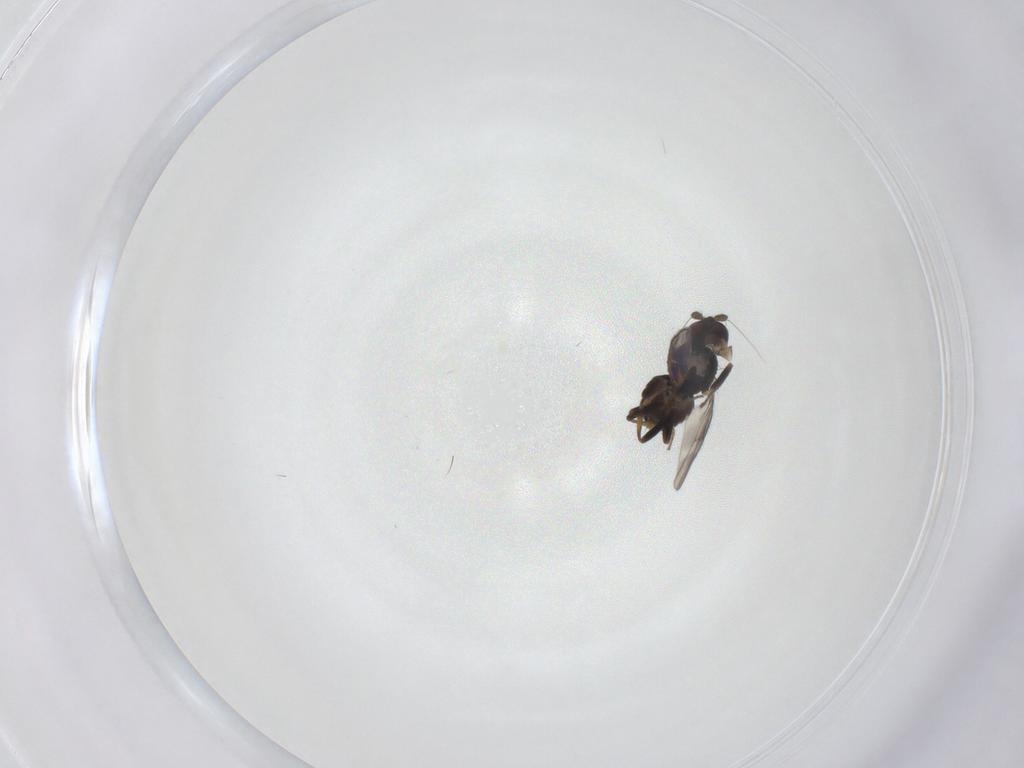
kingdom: Animalia
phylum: Arthropoda
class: Insecta
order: Diptera
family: Sphaeroceridae
